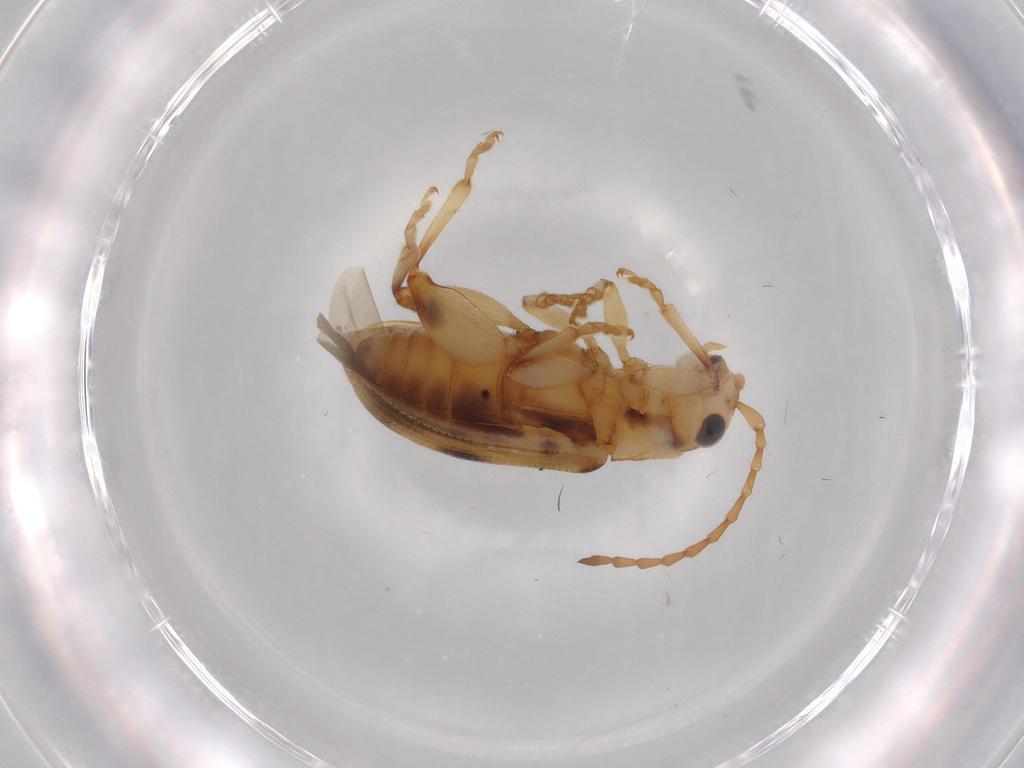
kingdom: Animalia
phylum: Arthropoda
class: Insecta
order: Coleoptera
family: Chrysomelidae
